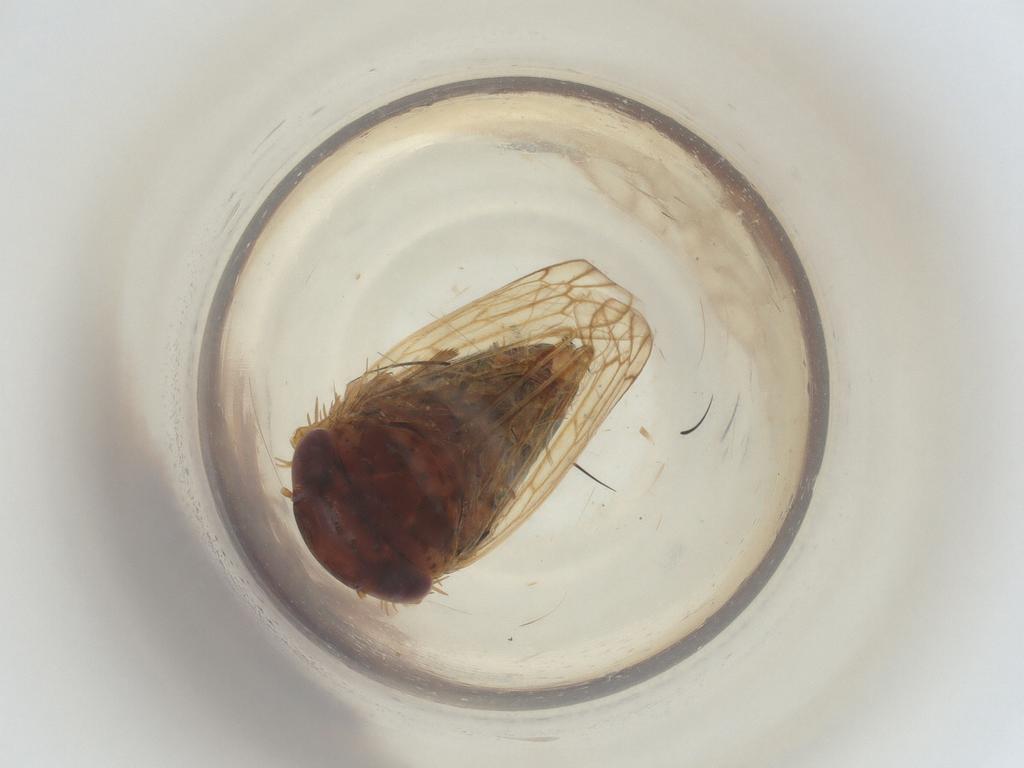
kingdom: Animalia
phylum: Arthropoda
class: Insecta
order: Hemiptera
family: Cicadellidae
